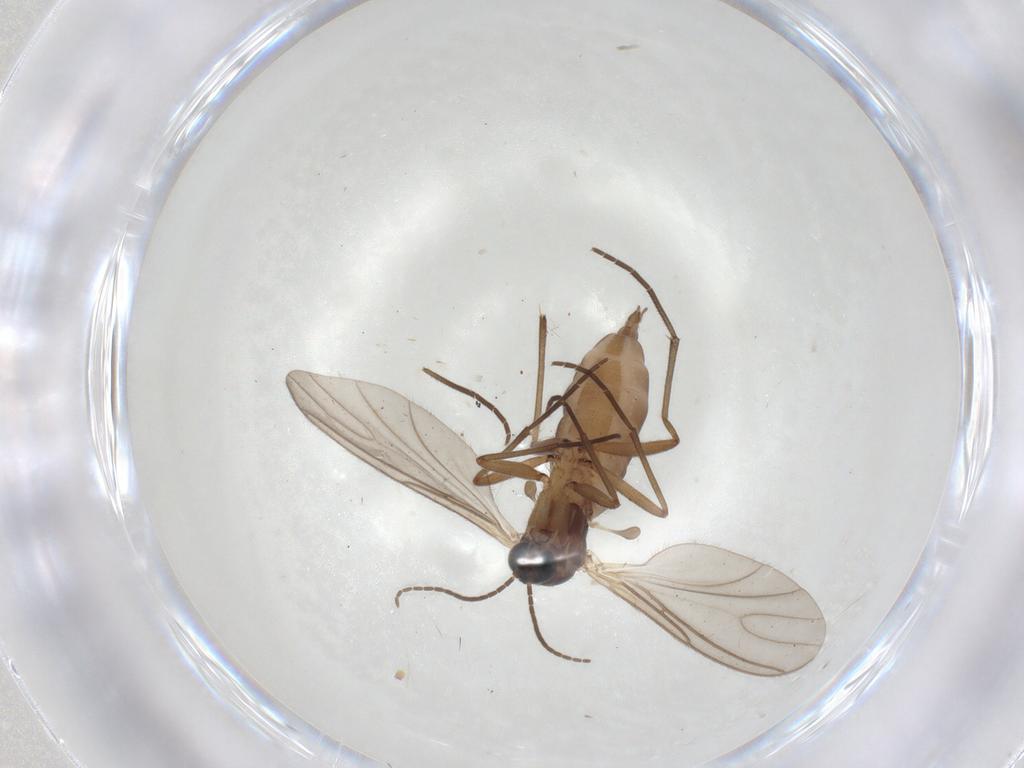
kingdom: Animalia
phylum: Arthropoda
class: Insecta
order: Diptera
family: Sciaridae
